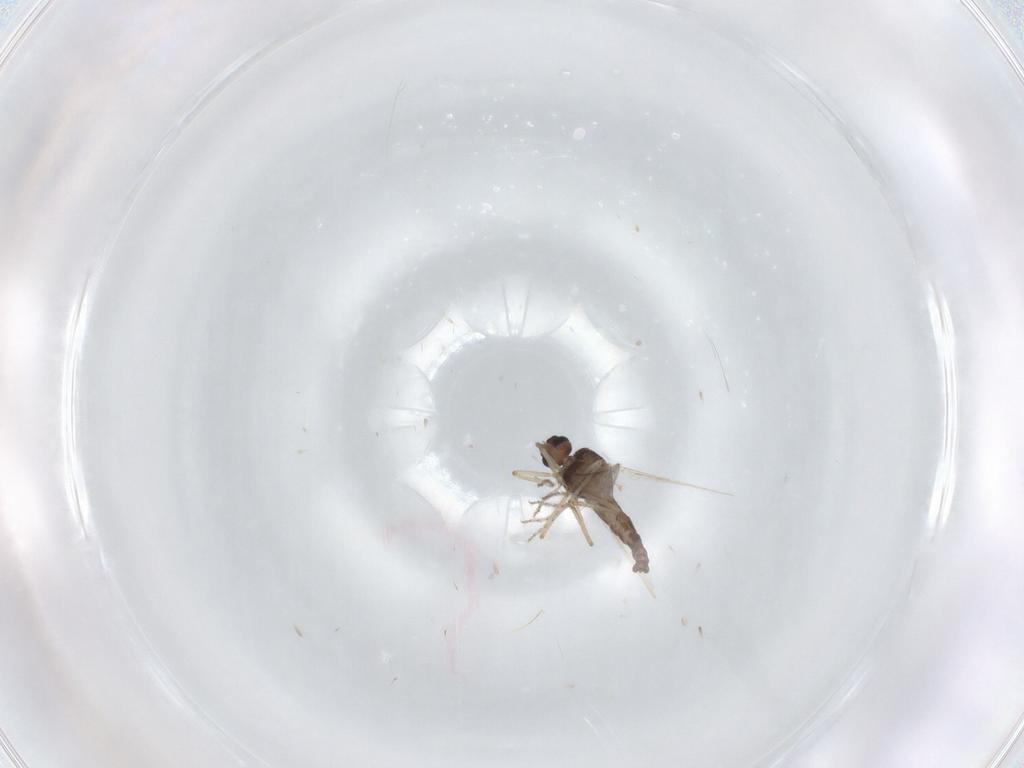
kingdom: Animalia
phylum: Arthropoda
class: Insecta
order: Diptera
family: Ceratopogonidae
